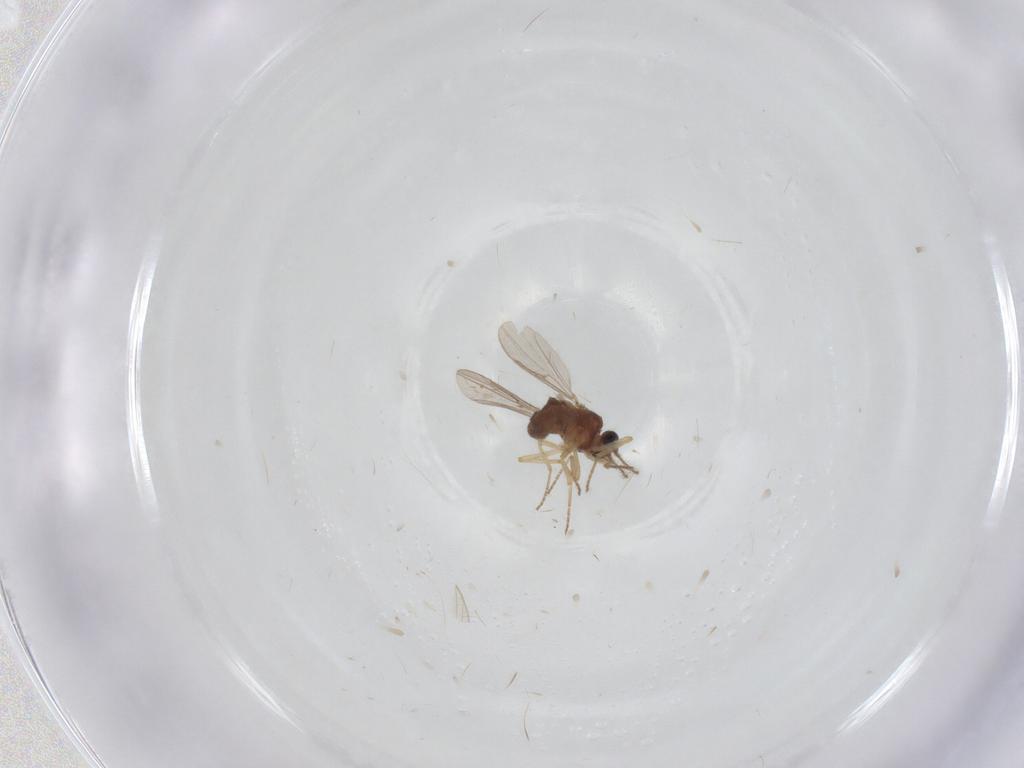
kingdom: Animalia
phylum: Arthropoda
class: Insecta
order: Diptera
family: Ceratopogonidae
